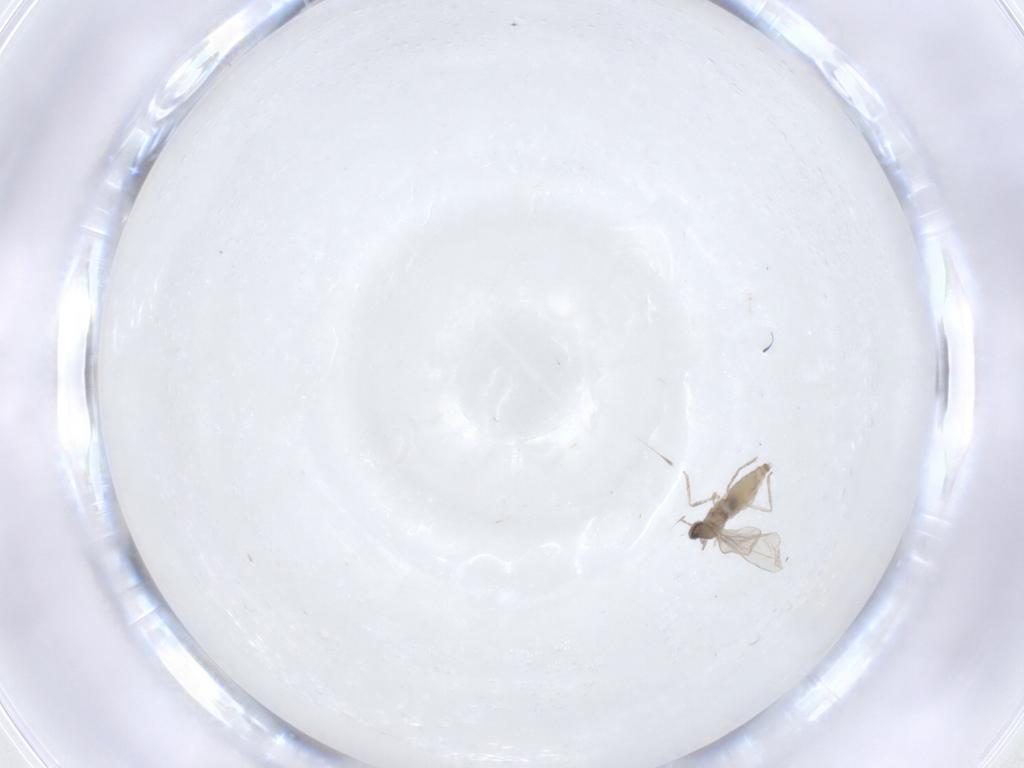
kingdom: Animalia
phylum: Arthropoda
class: Insecta
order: Diptera
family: Cecidomyiidae
